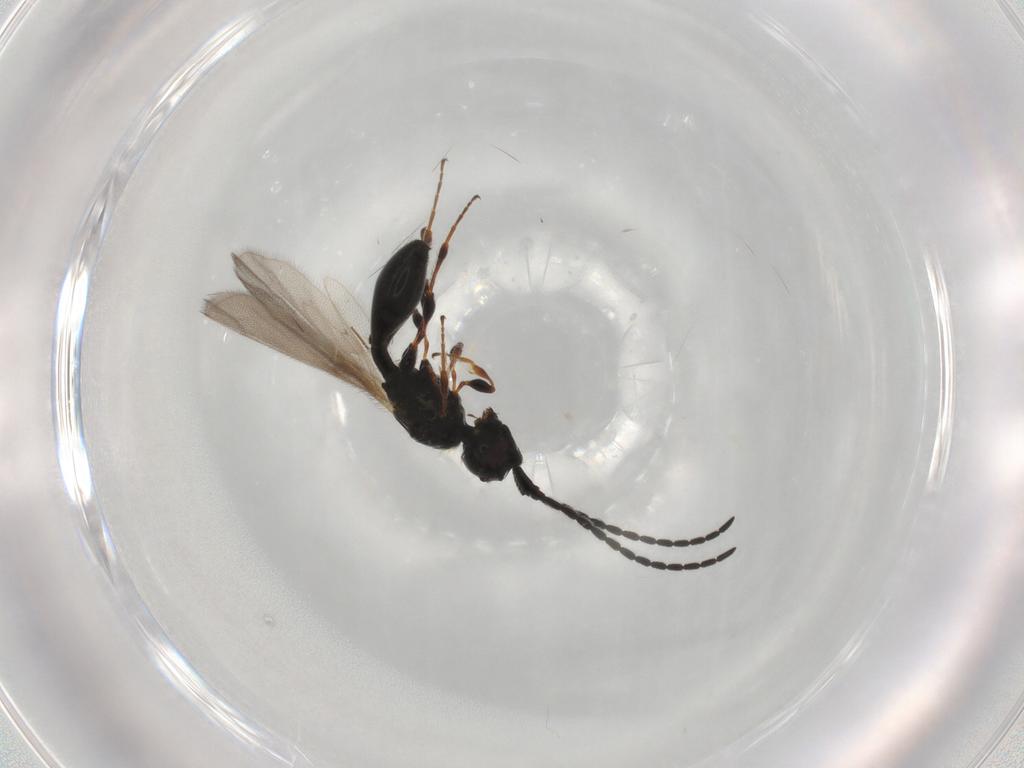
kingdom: Animalia
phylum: Arthropoda
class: Insecta
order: Hymenoptera
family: Diapriidae
